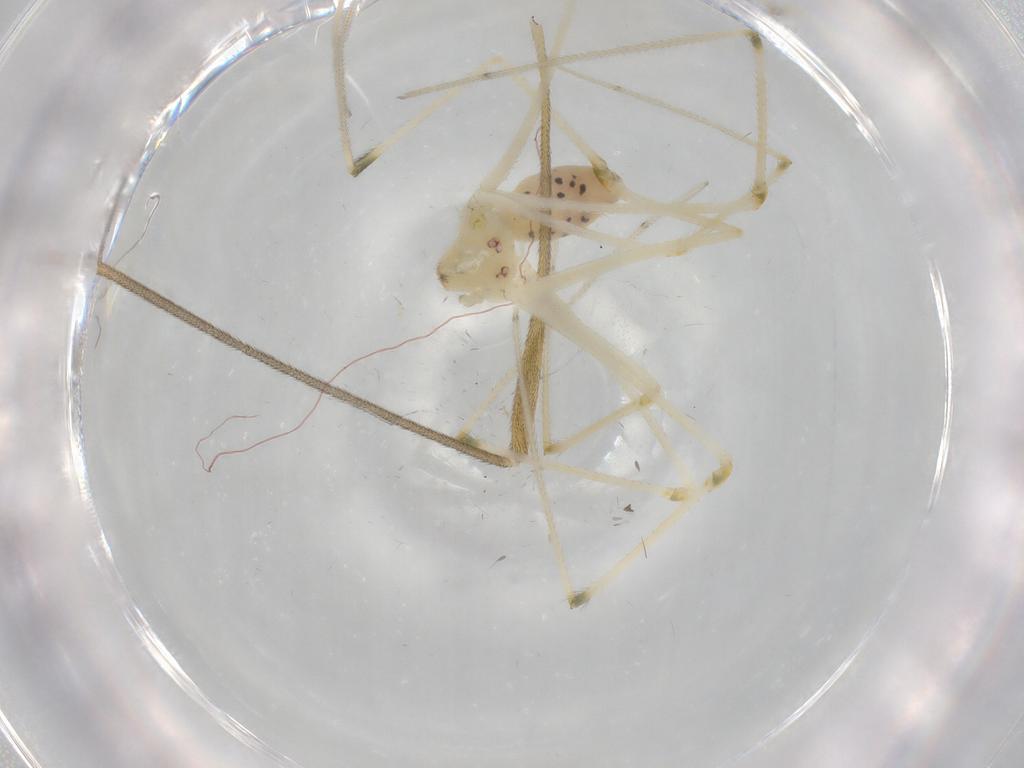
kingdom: Animalia
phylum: Arthropoda
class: Arachnida
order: Araneae
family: Pholcidae
